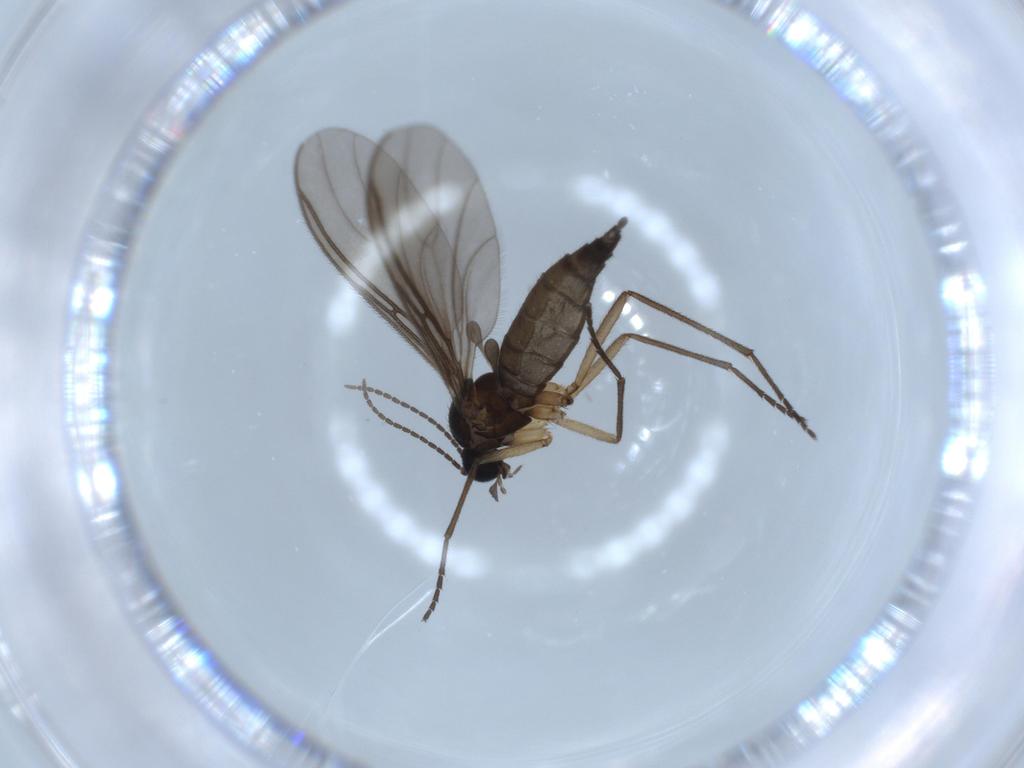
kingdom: Animalia
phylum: Arthropoda
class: Insecta
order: Diptera
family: Sciaridae
